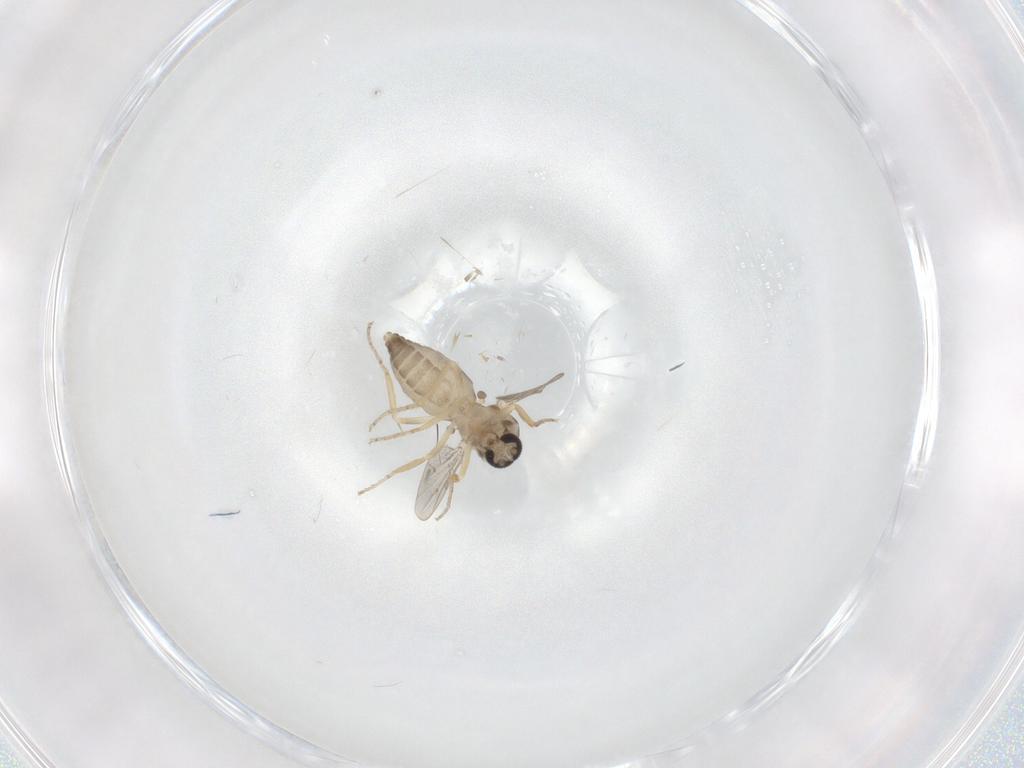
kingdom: Animalia
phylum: Arthropoda
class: Insecta
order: Diptera
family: Ceratopogonidae
